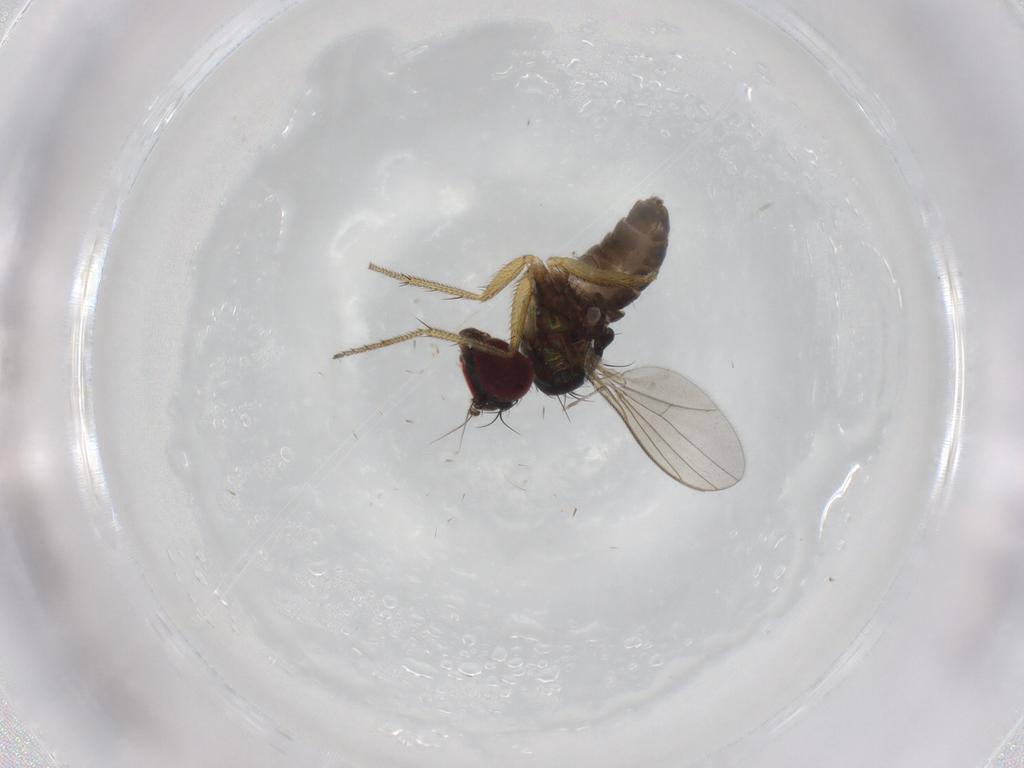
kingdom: Animalia
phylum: Arthropoda
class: Insecta
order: Diptera
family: Psychodidae
